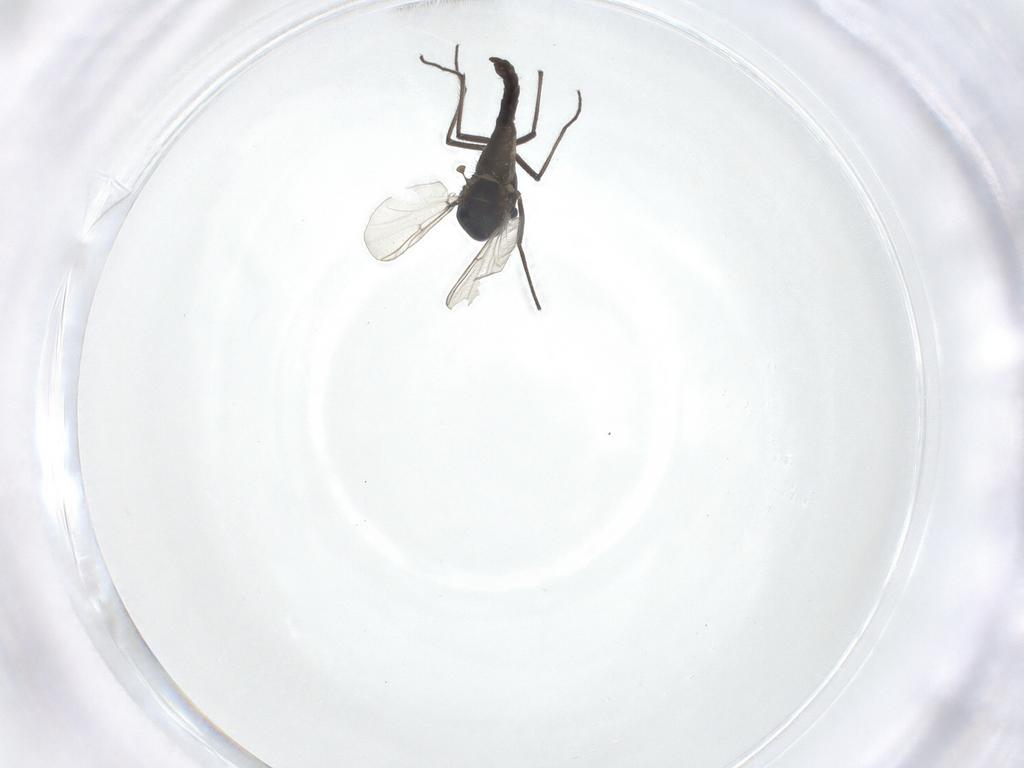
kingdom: Animalia
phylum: Arthropoda
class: Insecta
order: Diptera
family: Chironomidae
